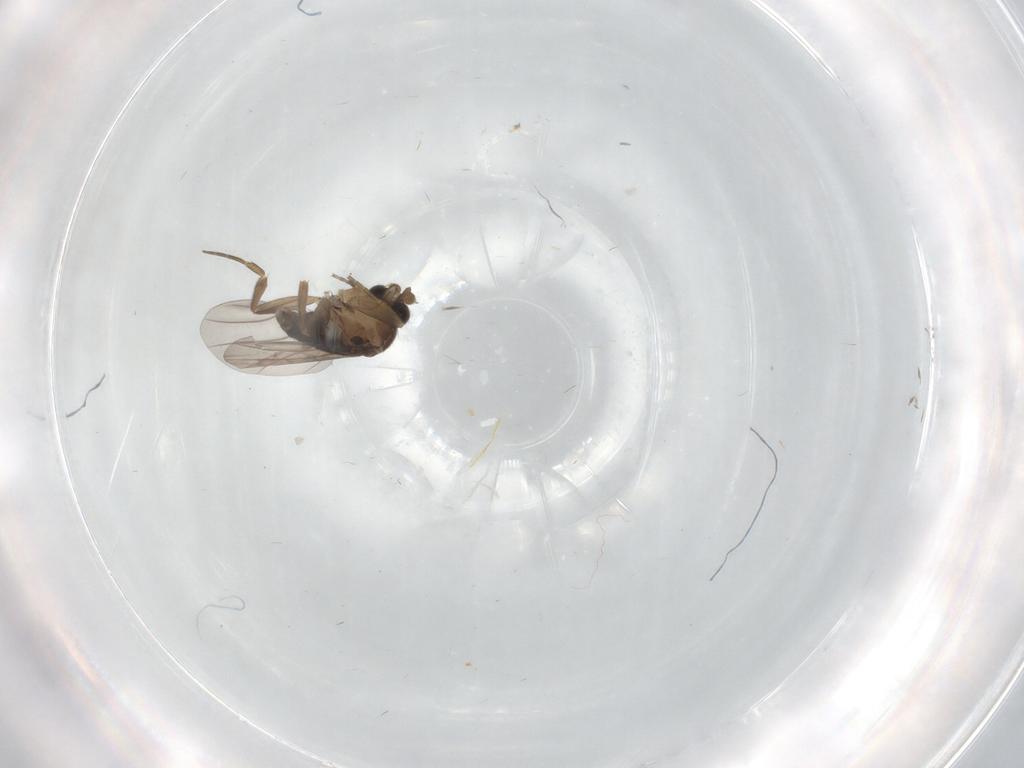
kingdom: Animalia
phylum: Arthropoda
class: Insecta
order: Diptera
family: Phoridae
